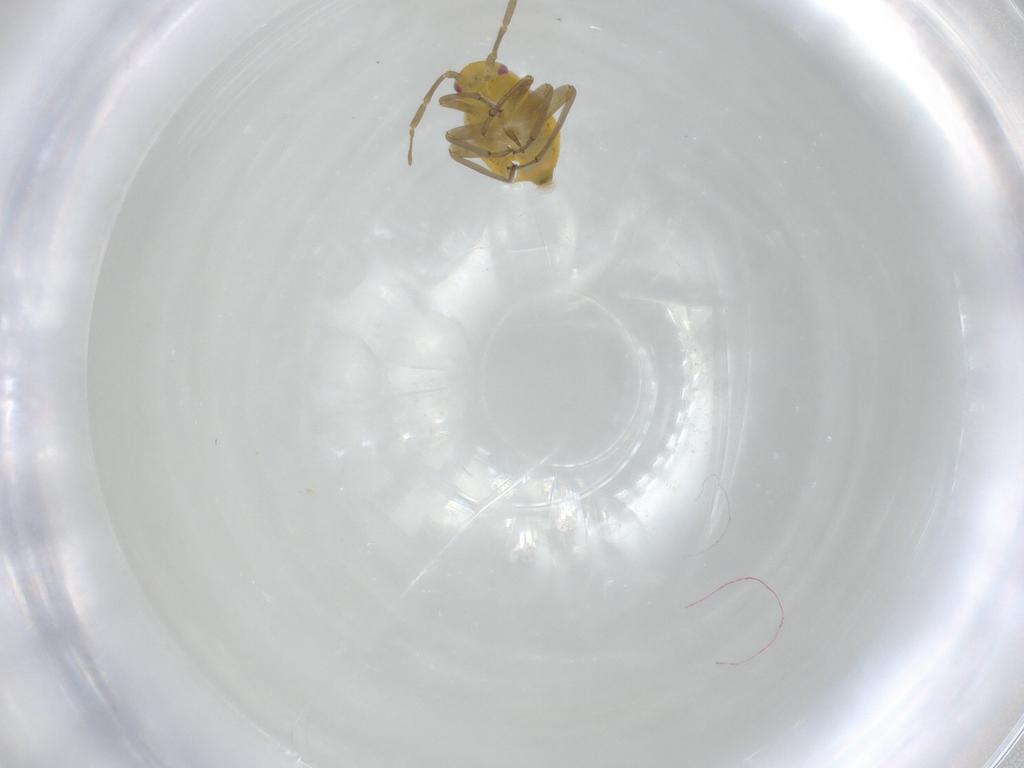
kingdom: Animalia
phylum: Arthropoda
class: Insecta
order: Hemiptera
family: Miridae
